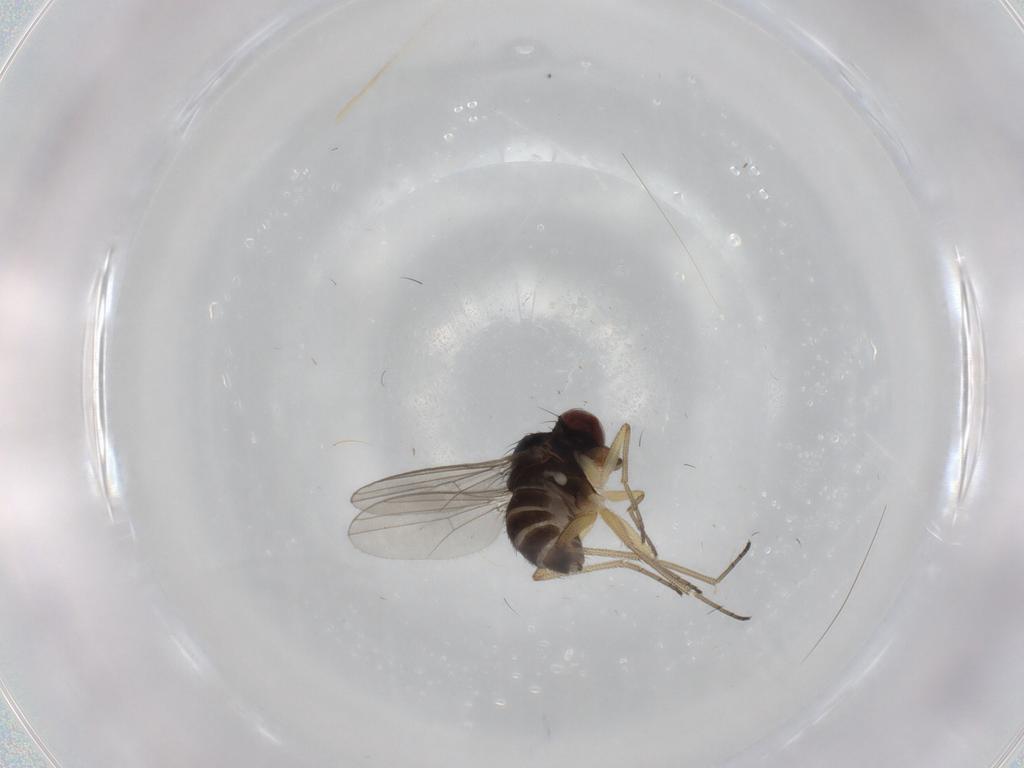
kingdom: Animalia
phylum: Arthropoda
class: Insecta
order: Diptera
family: Dolichopodidae
